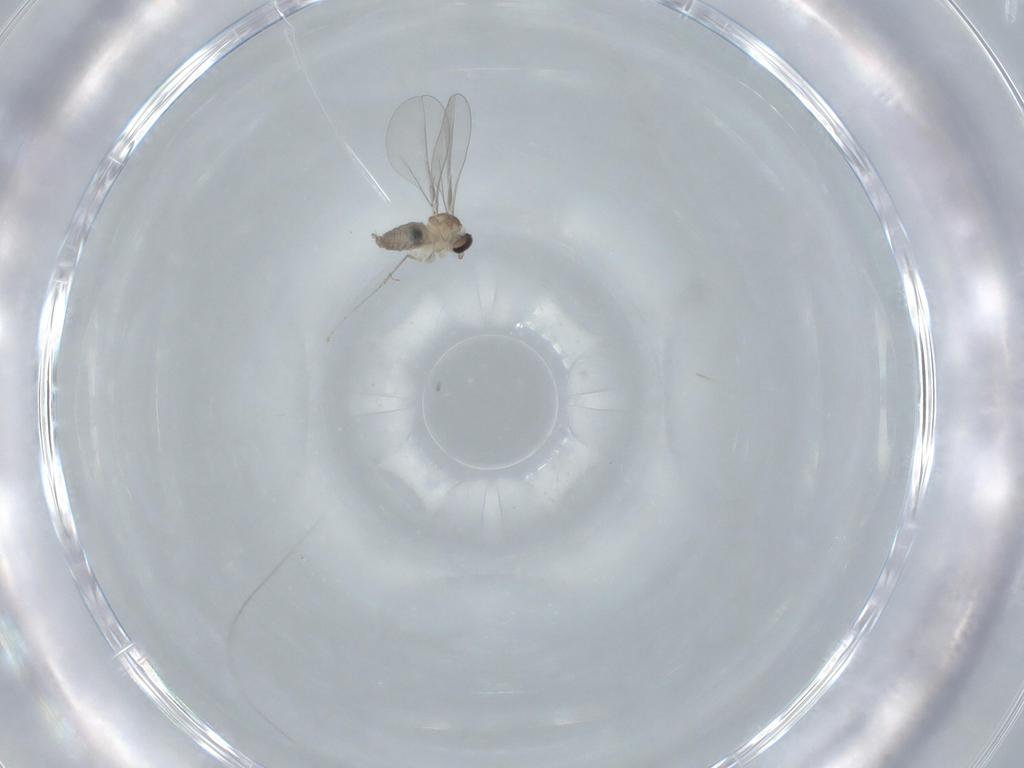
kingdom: Animalia
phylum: Arthropoda
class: Insecta
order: Diptera
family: Cecidomyiidae
